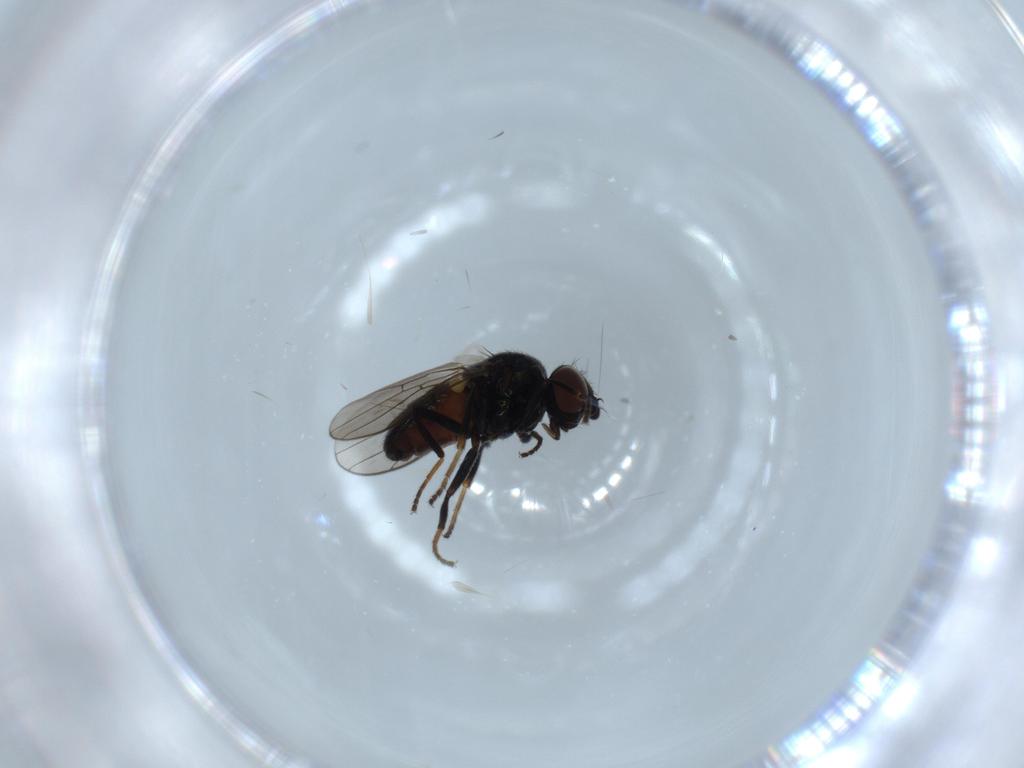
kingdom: Animalia
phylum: Arthropoda
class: Insecta
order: Diptera
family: Chloropidae
